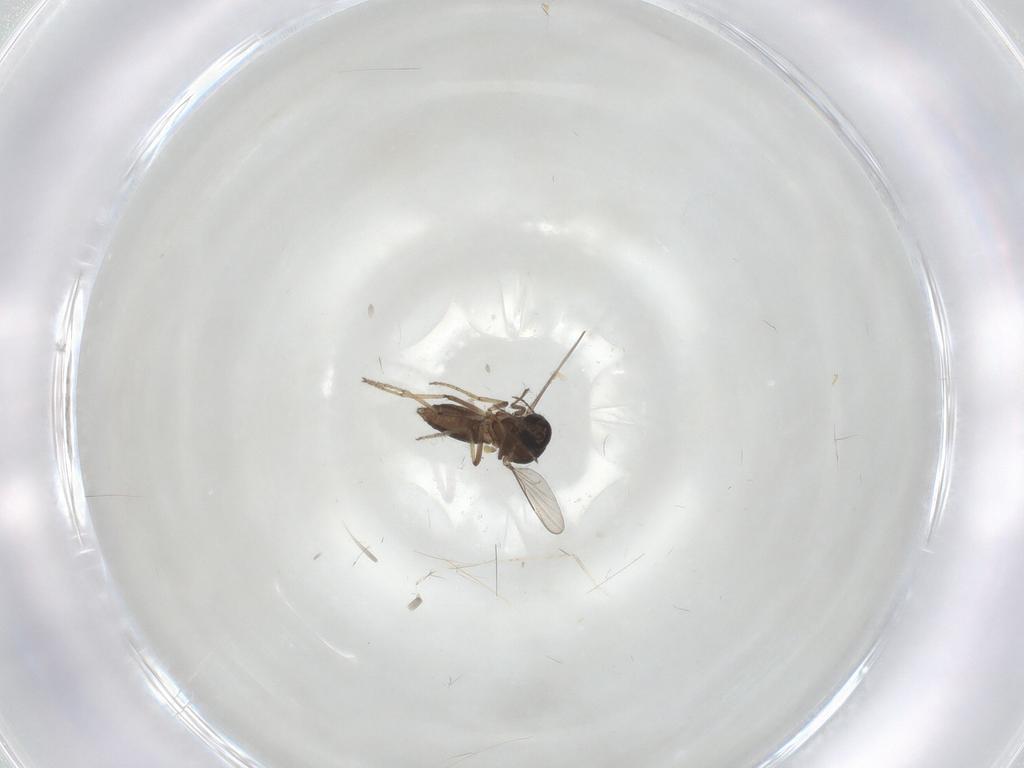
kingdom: Animalia
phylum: Arthropoda
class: Insecta
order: Diptera
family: Ceratopogonidae
